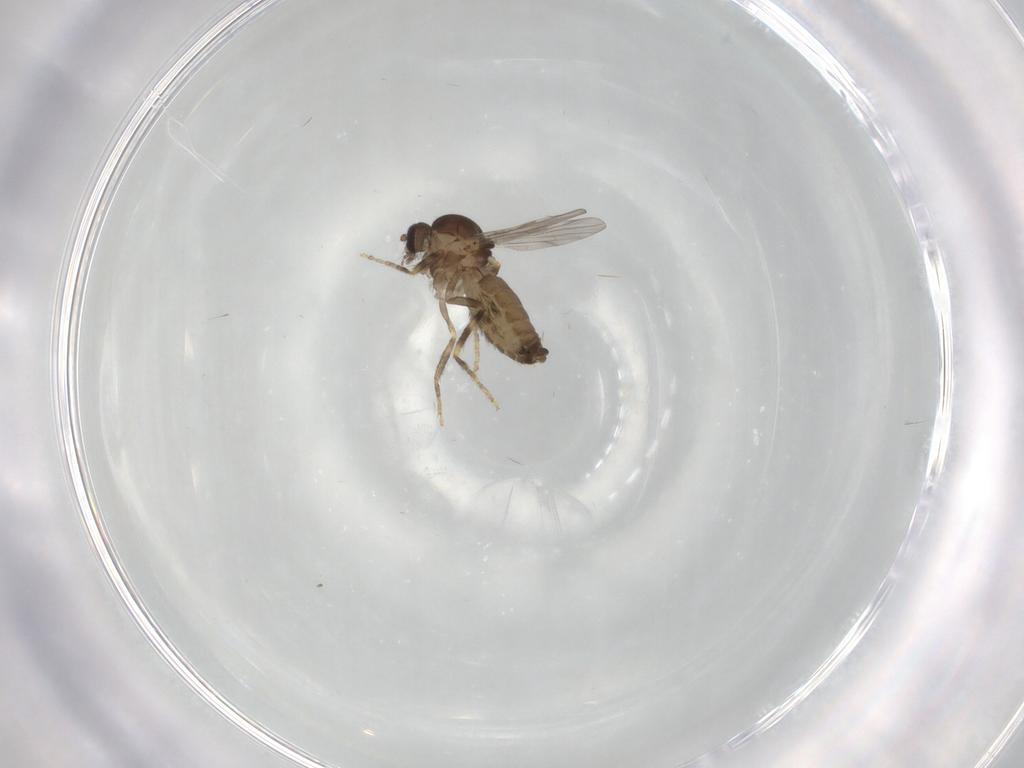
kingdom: Animalia
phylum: Arthropoda
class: Insecta
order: Diptera
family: Ceratopogonidae
